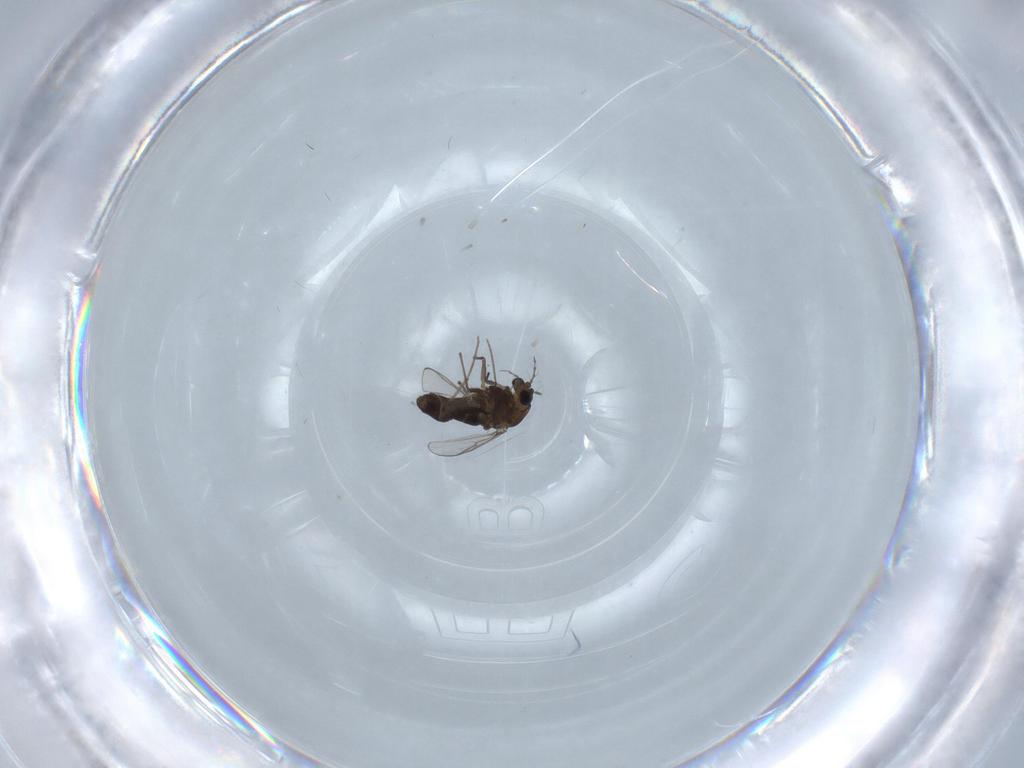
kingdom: Animalia
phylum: Arthropoda
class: Insecta
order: Diptera
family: Chironomidae
